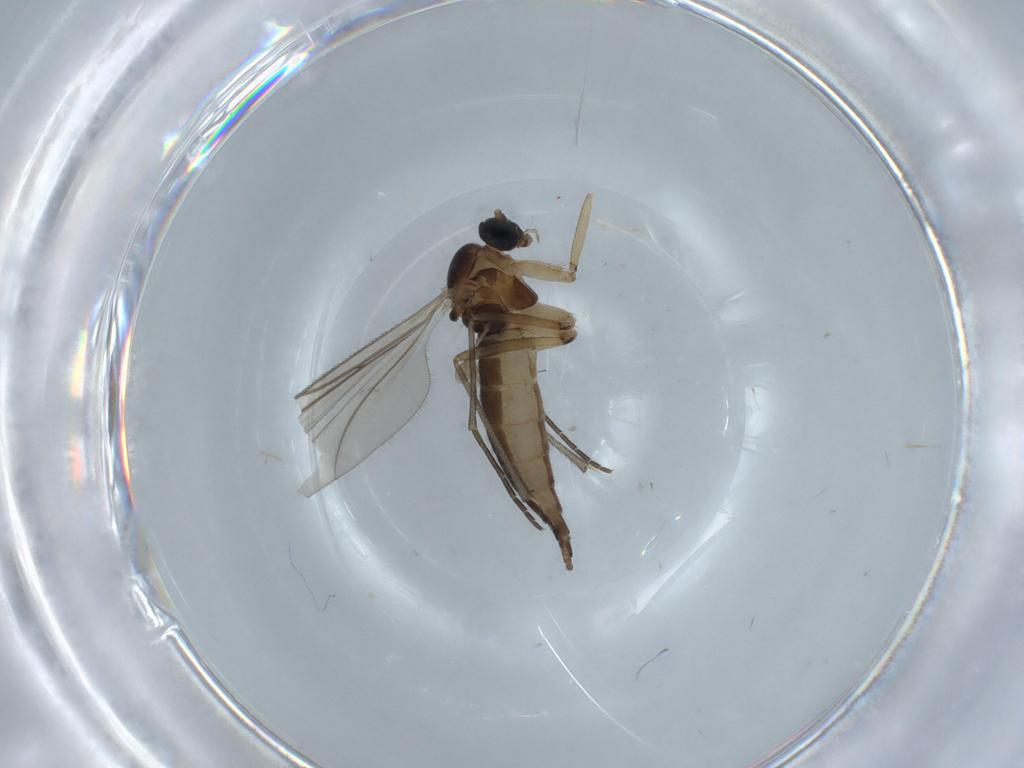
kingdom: Animalia
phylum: Arthropoda
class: Insecta
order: Diptera
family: Sciaridae
